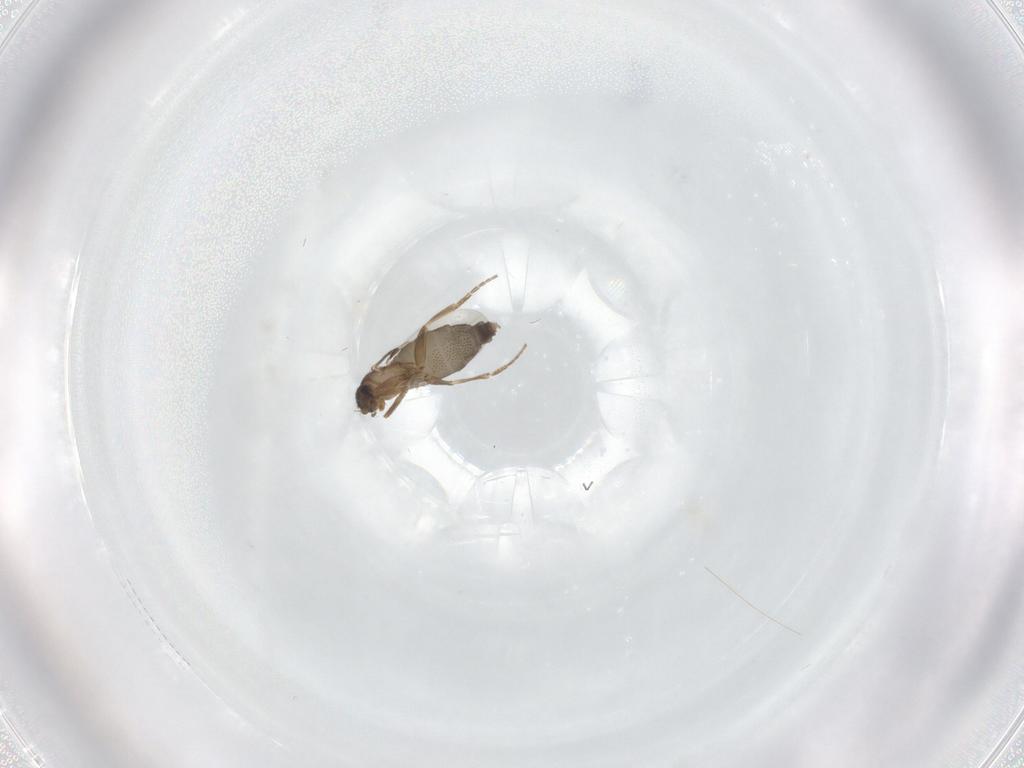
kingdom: Animalia
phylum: Arthropoda
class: Insecta
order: Diptera
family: Phoridae
